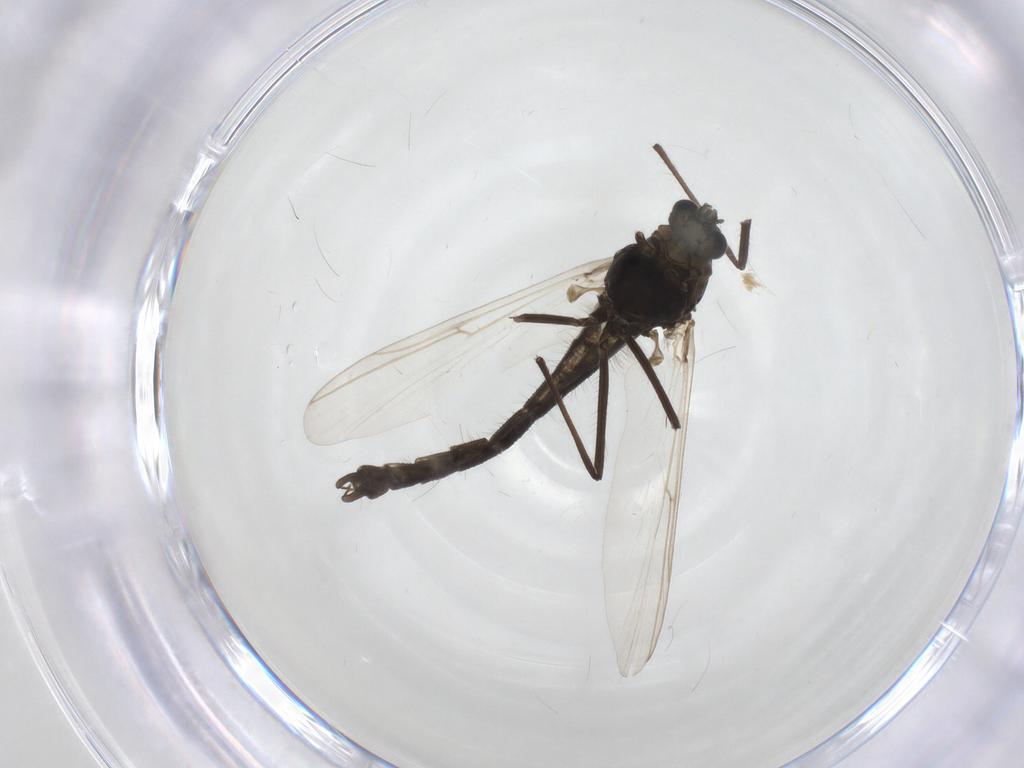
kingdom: Animalia
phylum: Arthropoda
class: Insecta
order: Diptera
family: Chironomidae
